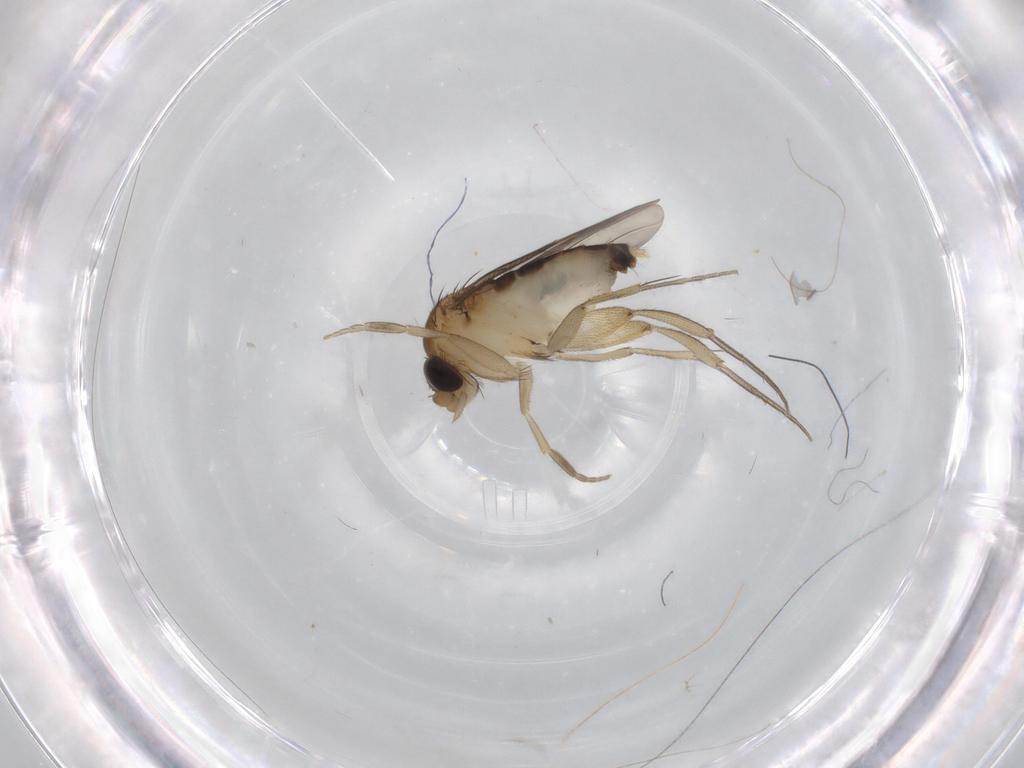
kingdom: Animalia
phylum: Arthropoda
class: Insecta
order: Diptera
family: Phoridae
